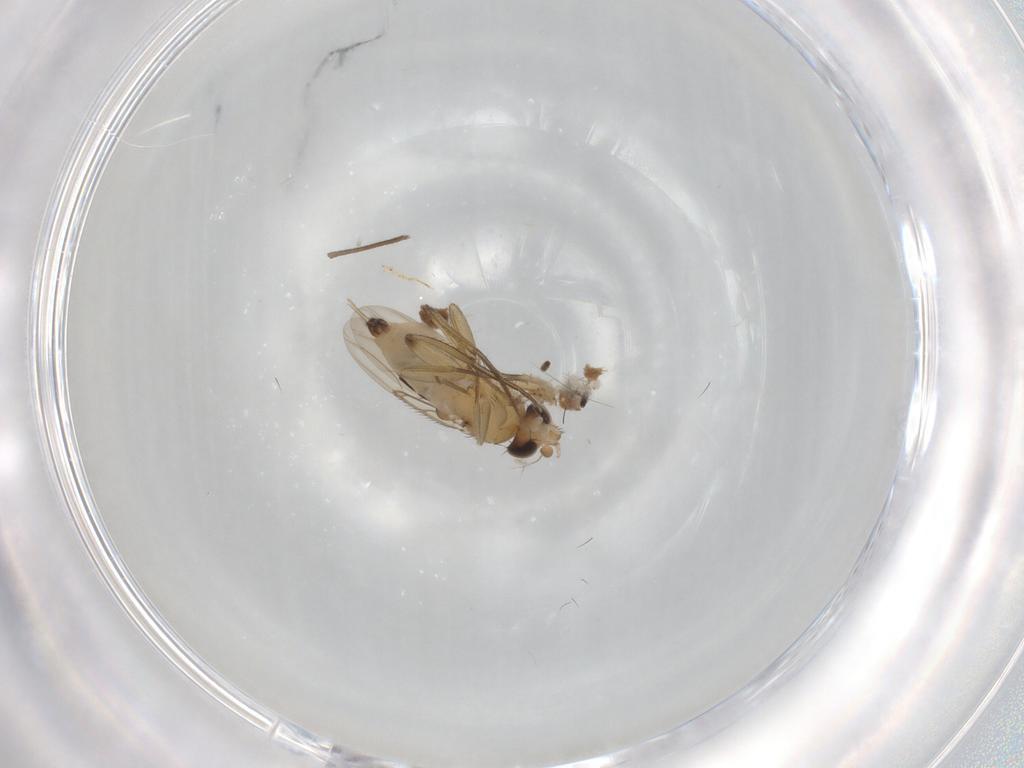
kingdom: Animalia
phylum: Arthropoda
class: Insecta
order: Diptera
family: Phoridae
